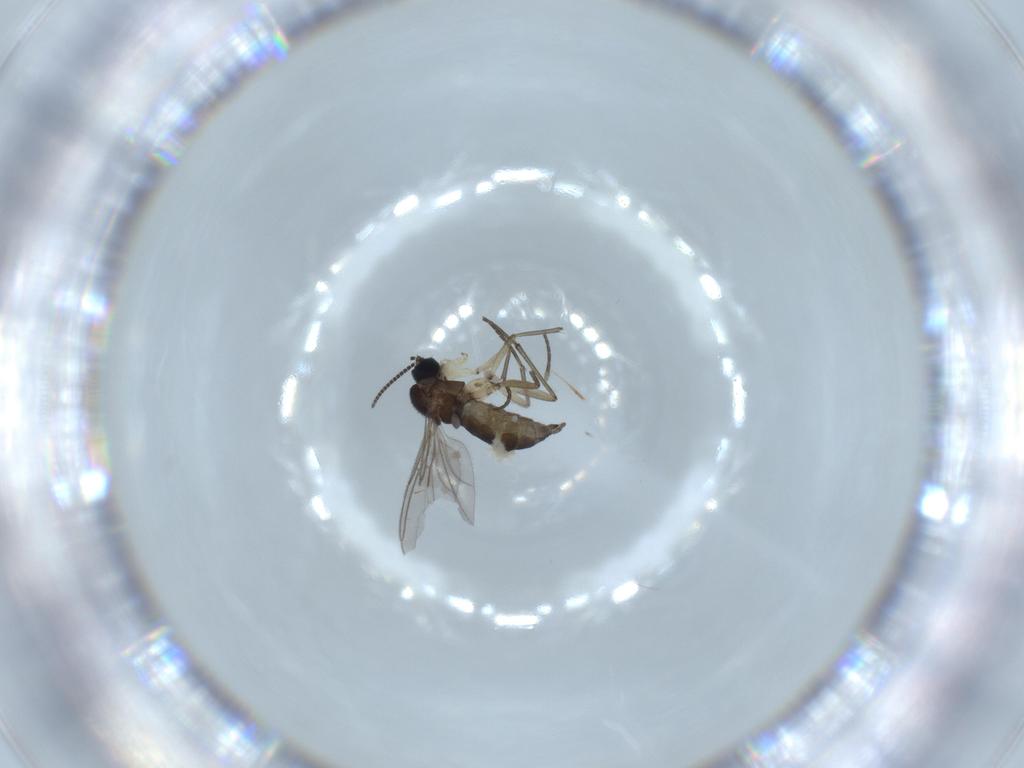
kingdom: Animalia
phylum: Arthropoda
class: Insecta
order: Diptera
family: Sciaridae
